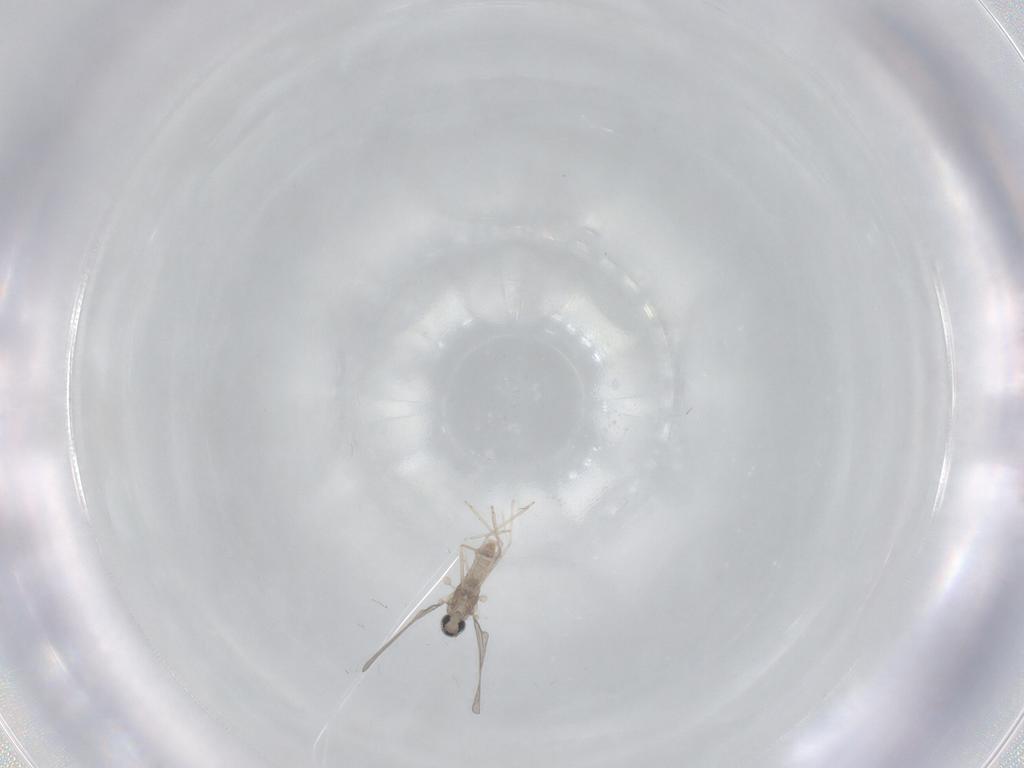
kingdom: Animalia
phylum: Arthropoda
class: Insecta
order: Diptera
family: Cecidomyiidae
